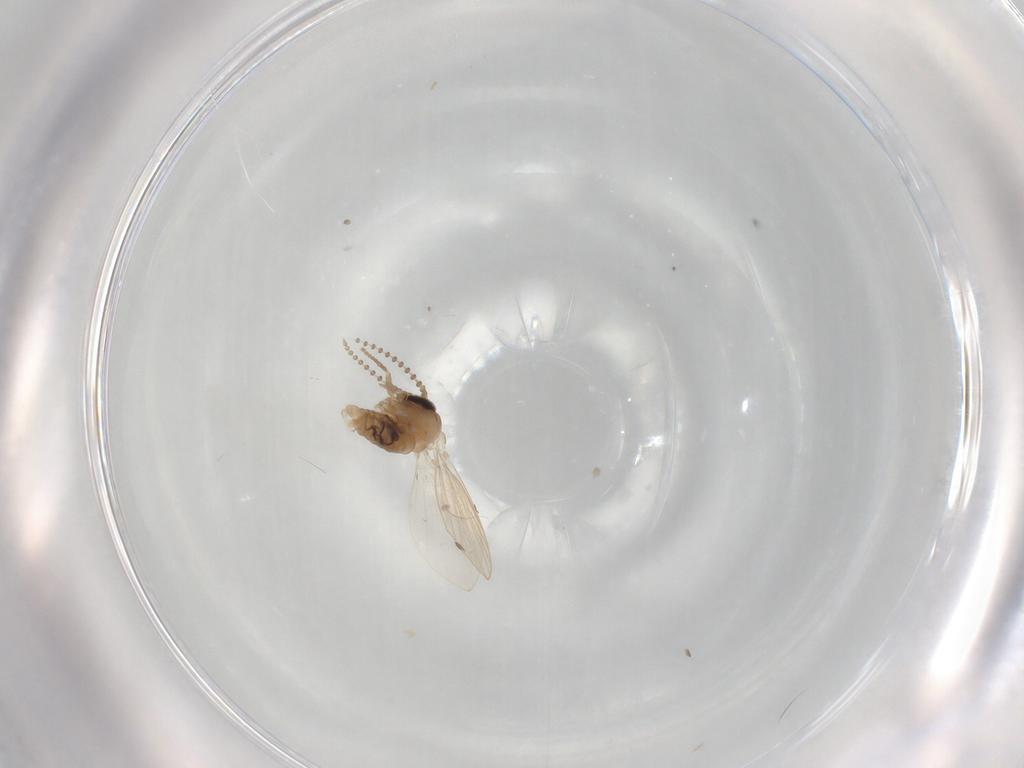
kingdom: Animalia
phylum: Arthropoda
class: Insecta
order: Diptera
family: Psychodidae
